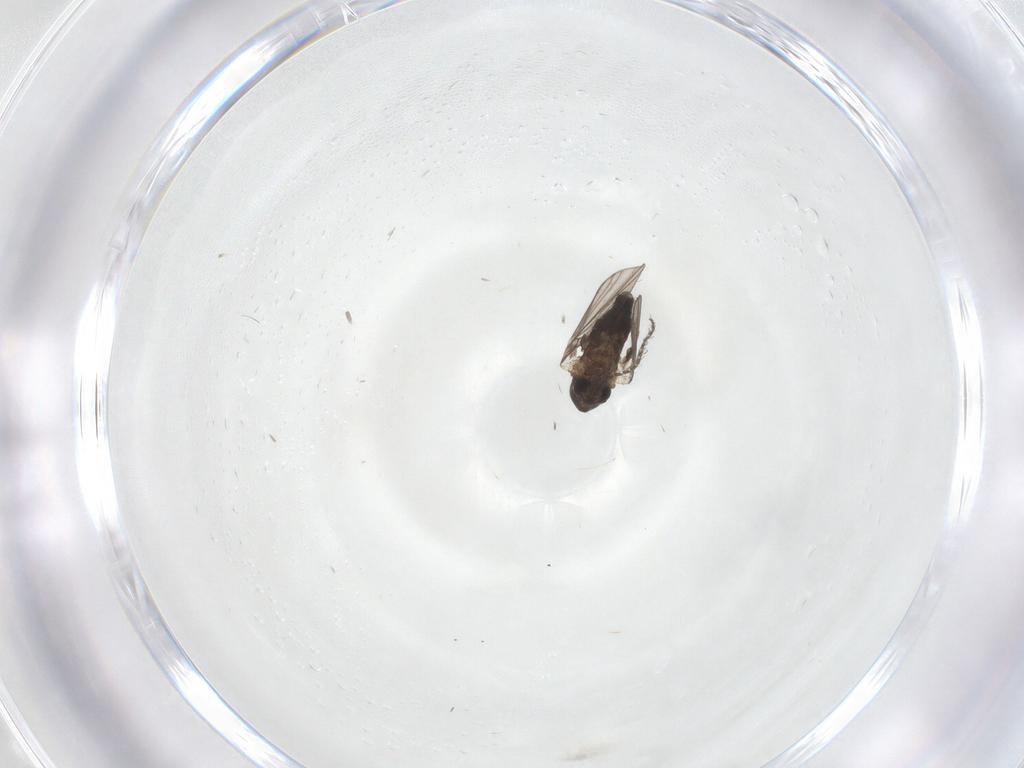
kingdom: Animalia
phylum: Arthropoda
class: Insecta
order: Diptera
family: Psychodidae
